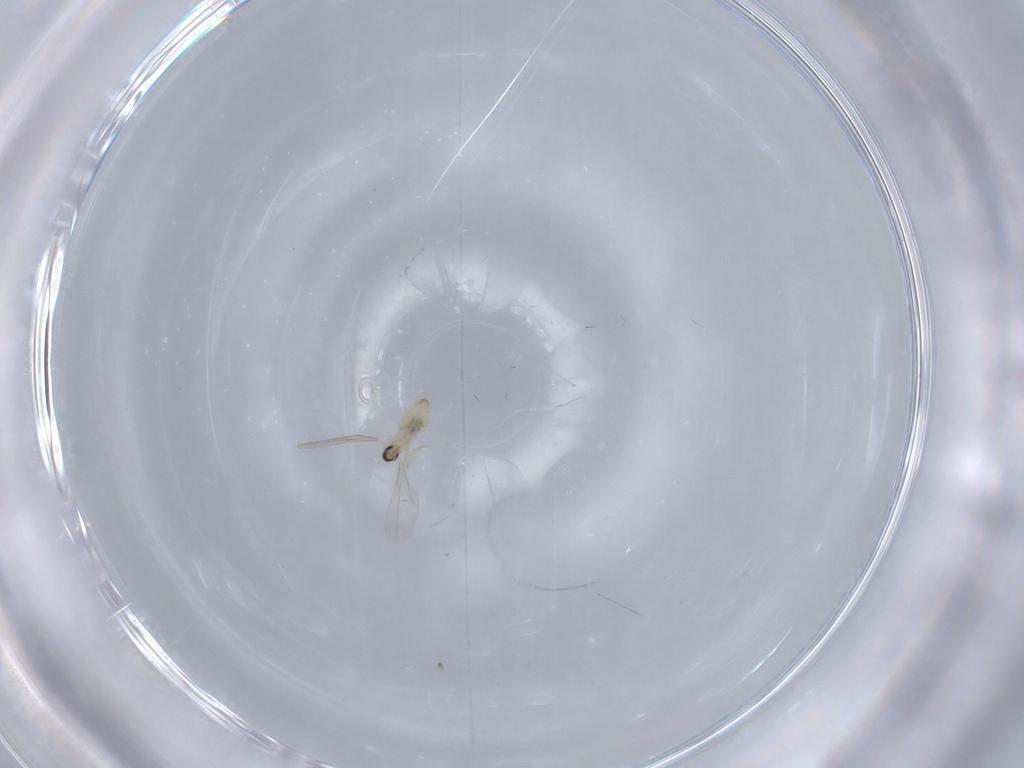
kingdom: Animalia
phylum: Arthropoda
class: Insecta
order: Diptera
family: Cecidomyiidae
